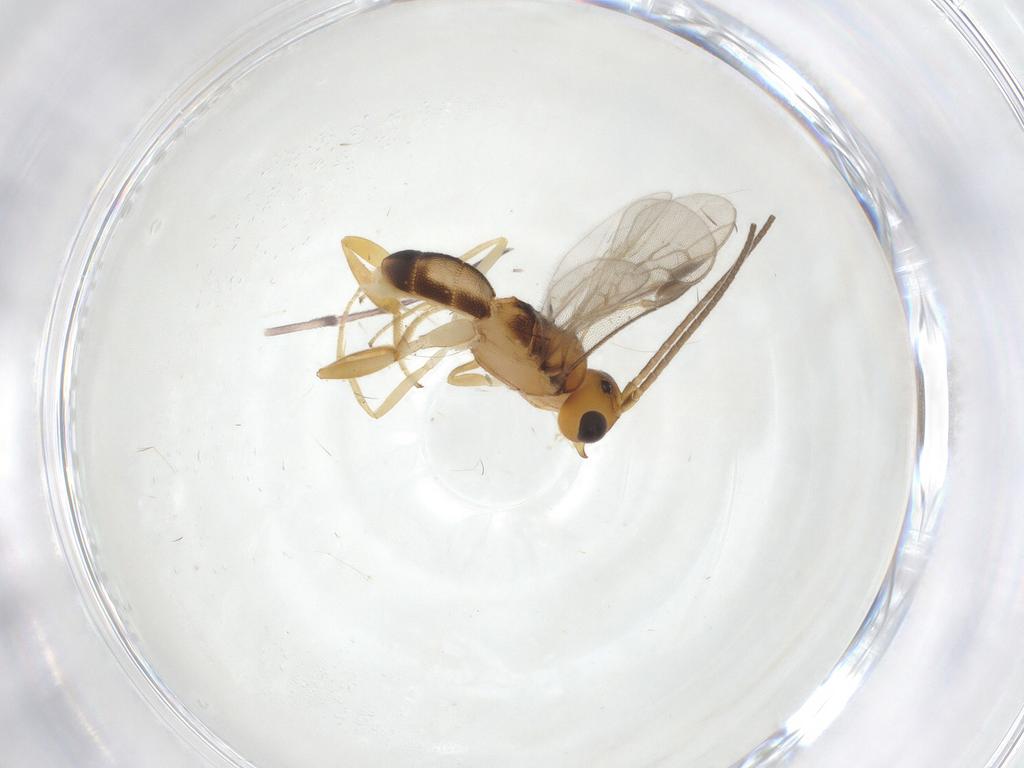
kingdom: Animalia
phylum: Arthropoda
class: Insecta
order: Hymenoptera
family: Braconidae
